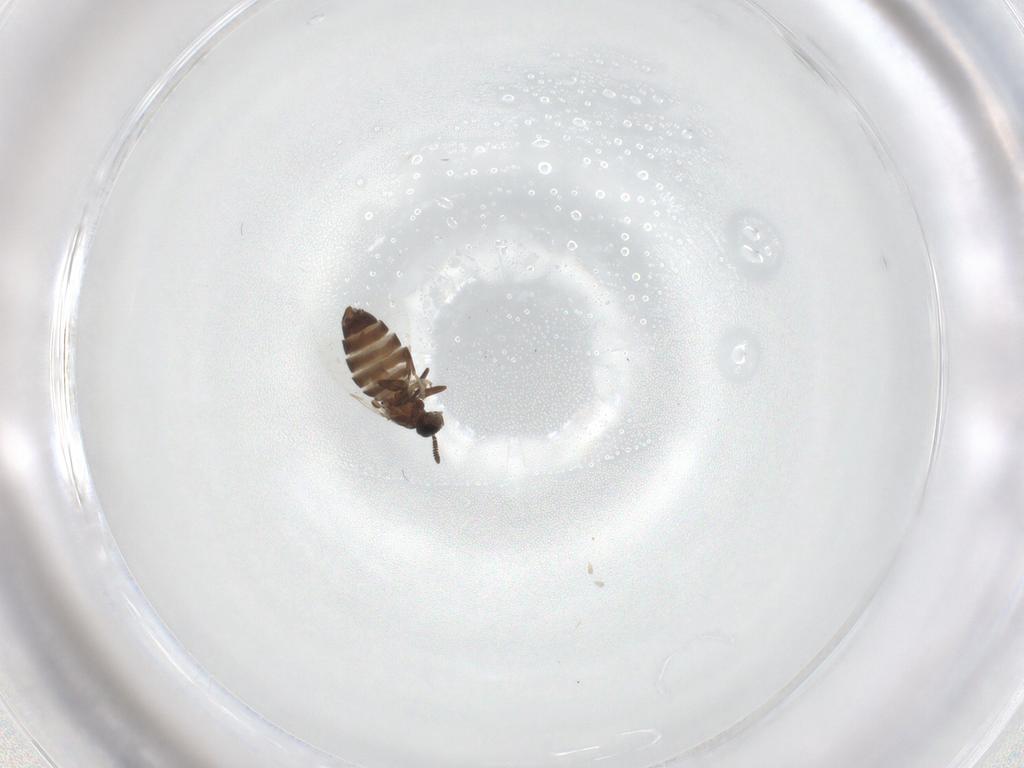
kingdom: Animalia
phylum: Arthropoda
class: Insecta
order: Diptera
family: Scatopsidae
